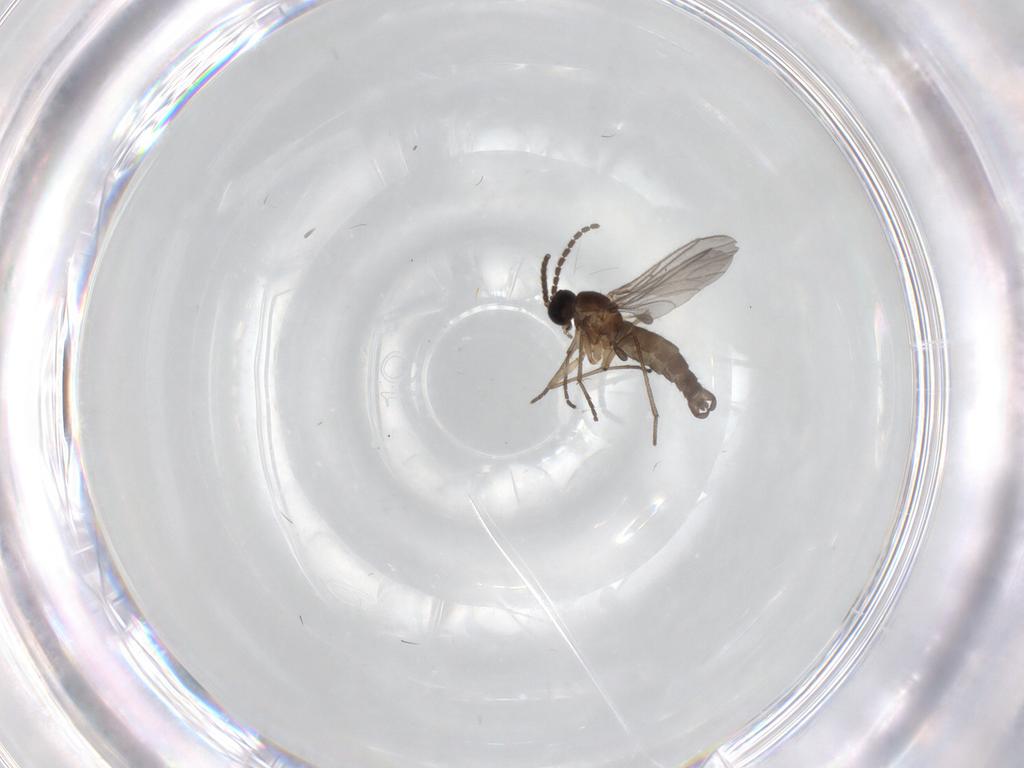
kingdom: Animalia
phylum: Arthropoda
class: Insecta
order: Diptera
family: Sciaridae
